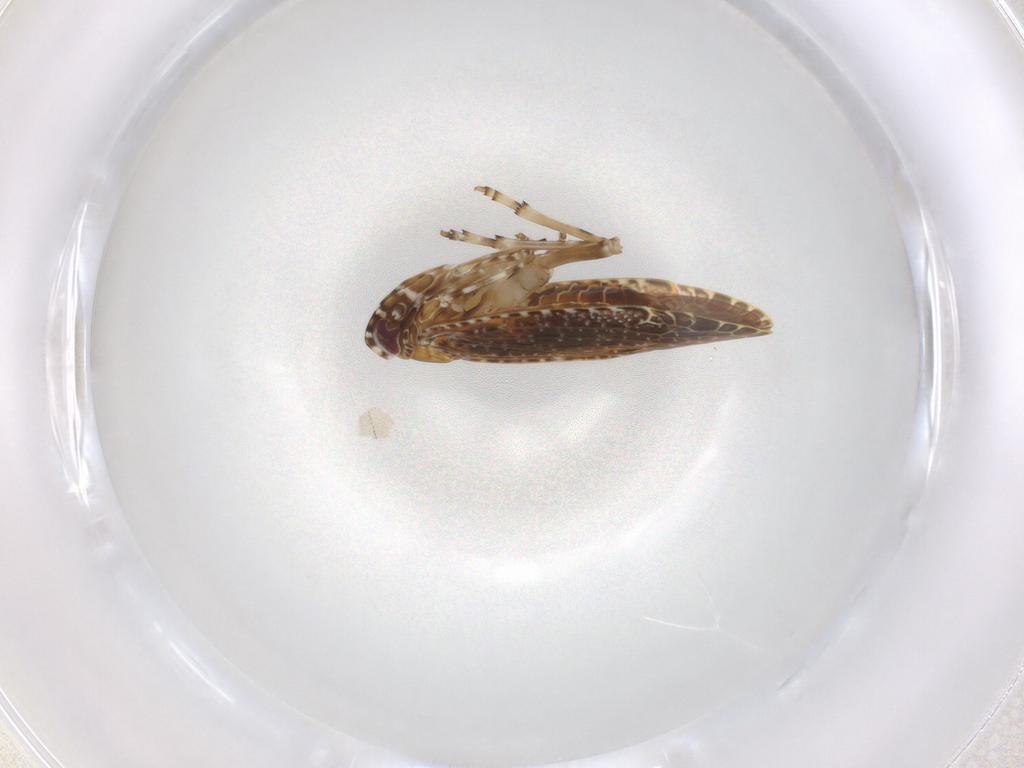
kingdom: Animalia
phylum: Arthropoda
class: Insecta
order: Hemiptera
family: Achilidae
